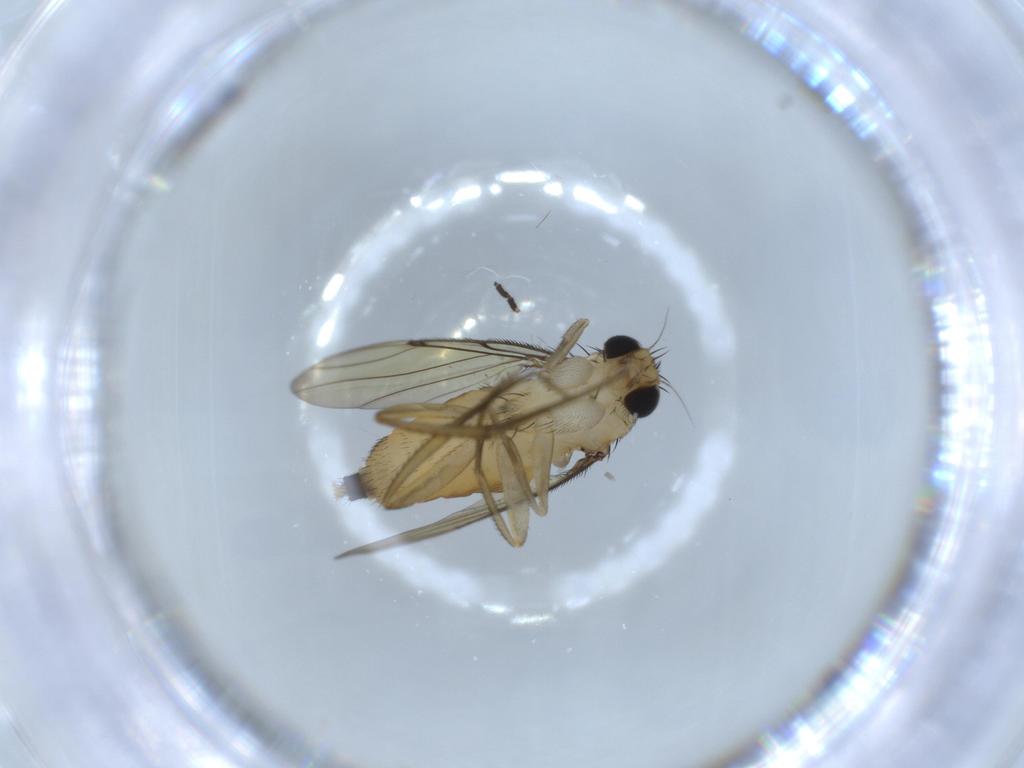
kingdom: Animalia
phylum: Arthropoda
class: Insecta
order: Diptera
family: Sciaridae
